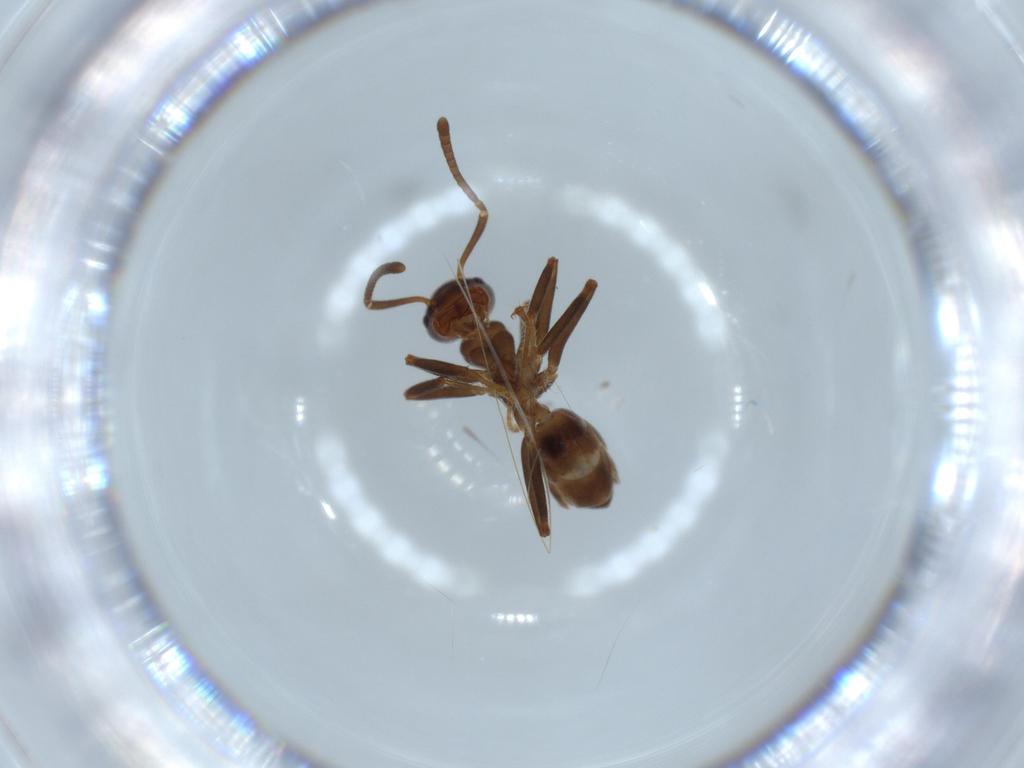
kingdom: Animalia
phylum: Arthropoda
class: Insecta
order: Hymenoptera
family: Formicidae
